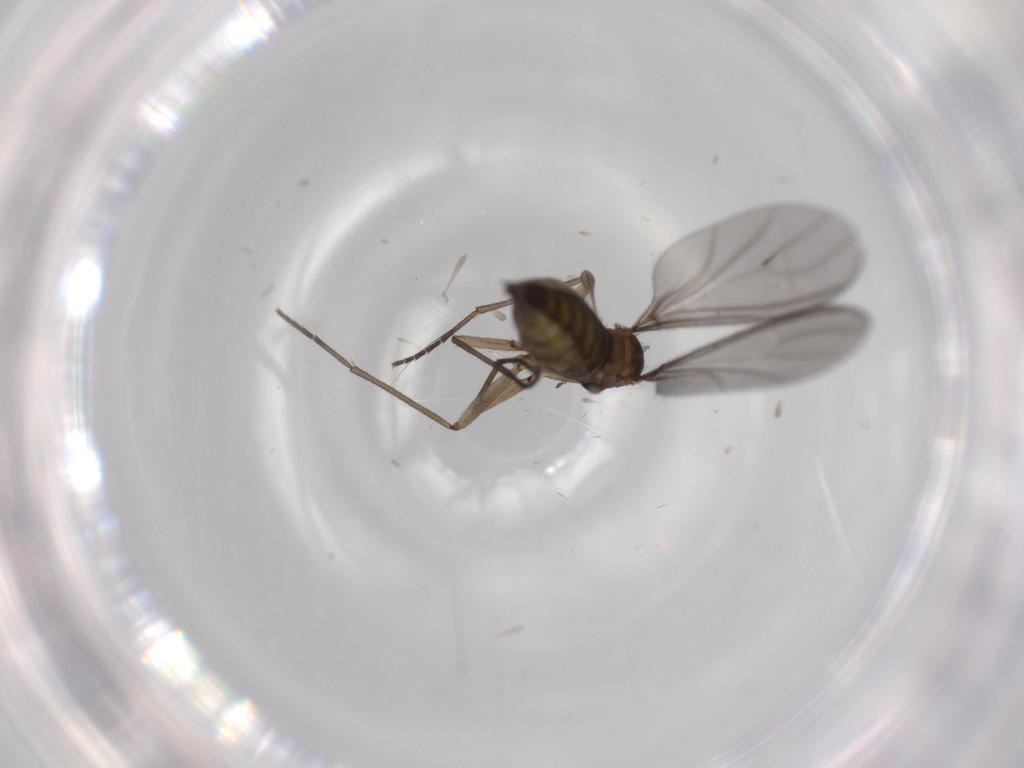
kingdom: Animalia
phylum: Arthropoda
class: Insecta
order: Diptera
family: Sciaridae
